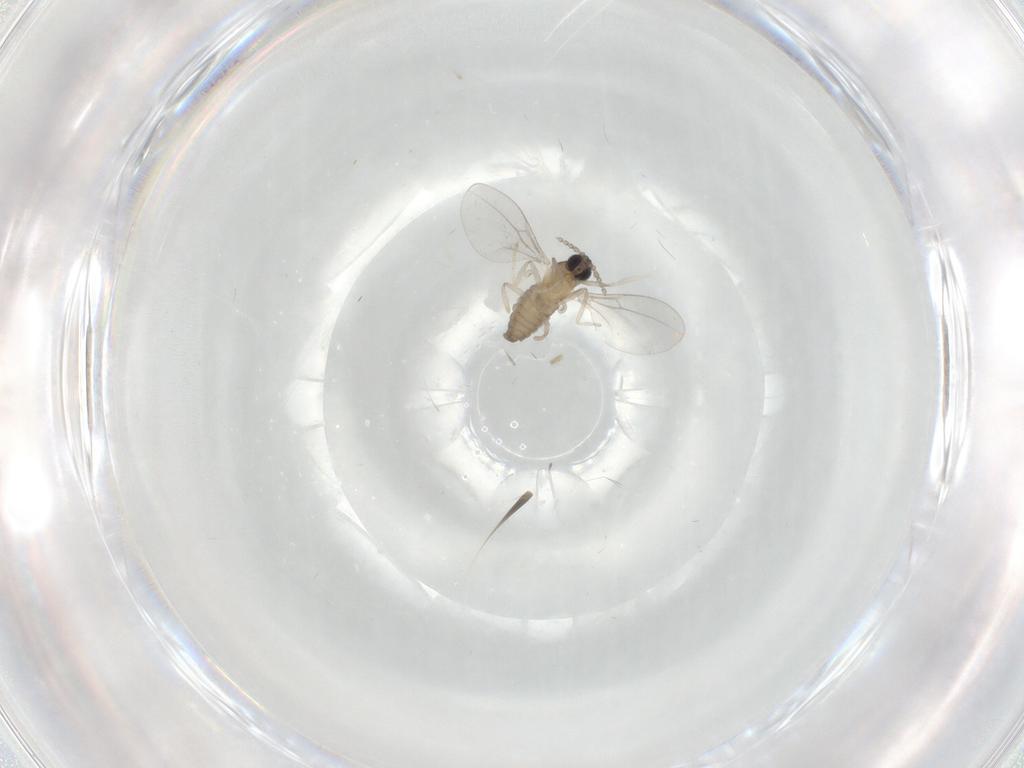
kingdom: Animalia
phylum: Arthropoda
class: Insecta
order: Diptera
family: Cecidomyiidae
